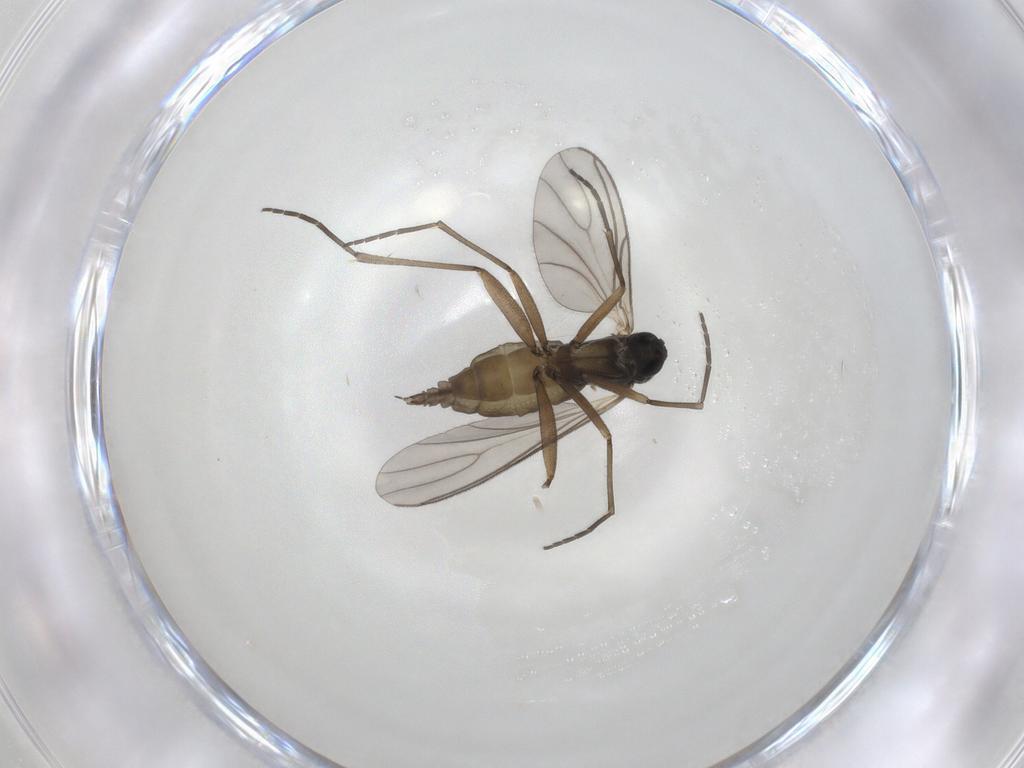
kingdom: Animalia
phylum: Arthropoda
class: Insecta
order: Diptera
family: Sciaridae
